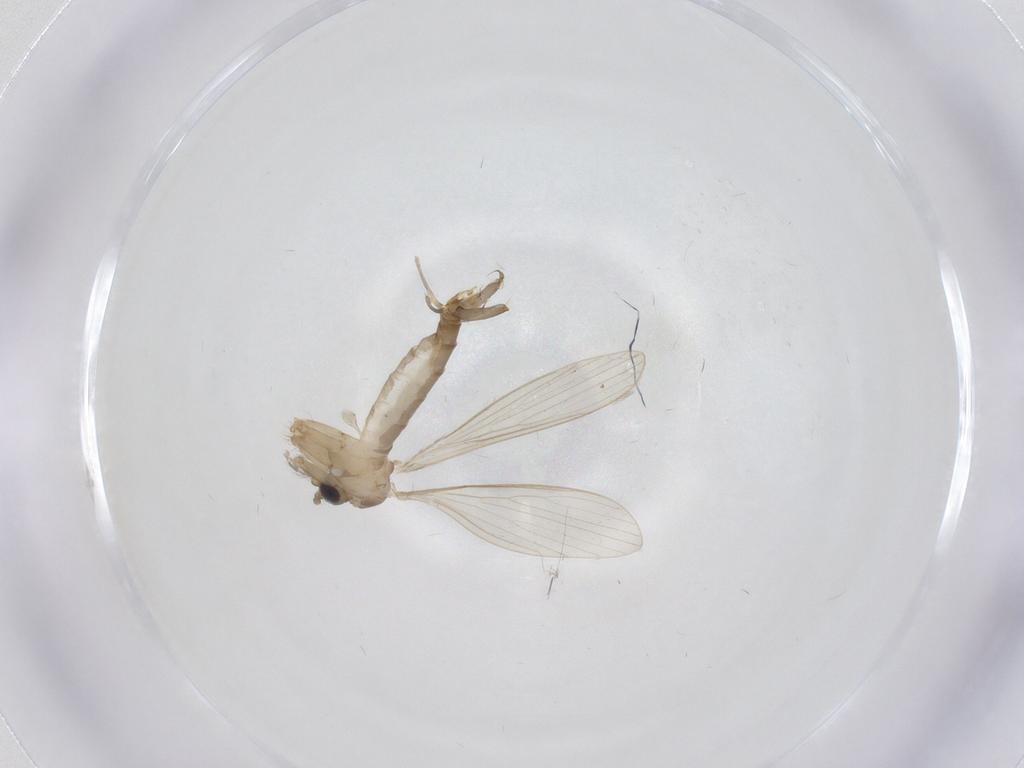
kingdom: Animalia
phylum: Arthropoda
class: Insecta
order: Diptera
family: Psychodidae
